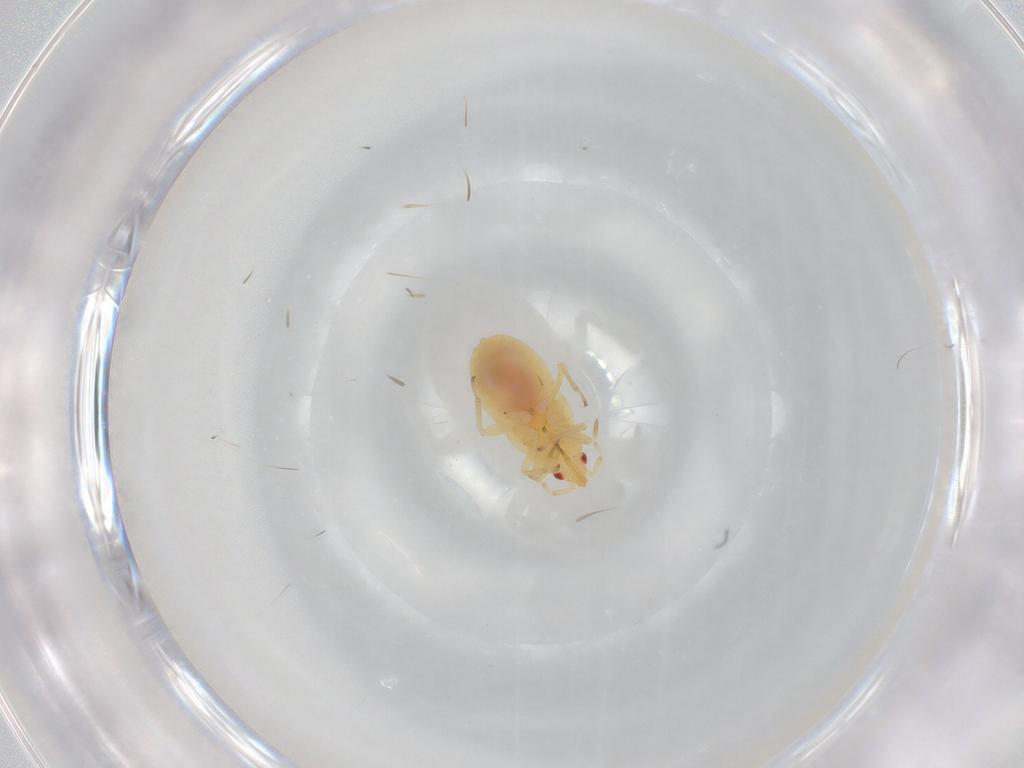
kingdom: Animalia
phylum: Arthropoda
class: Insecta
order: Hemiptera
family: Anthocoridae
